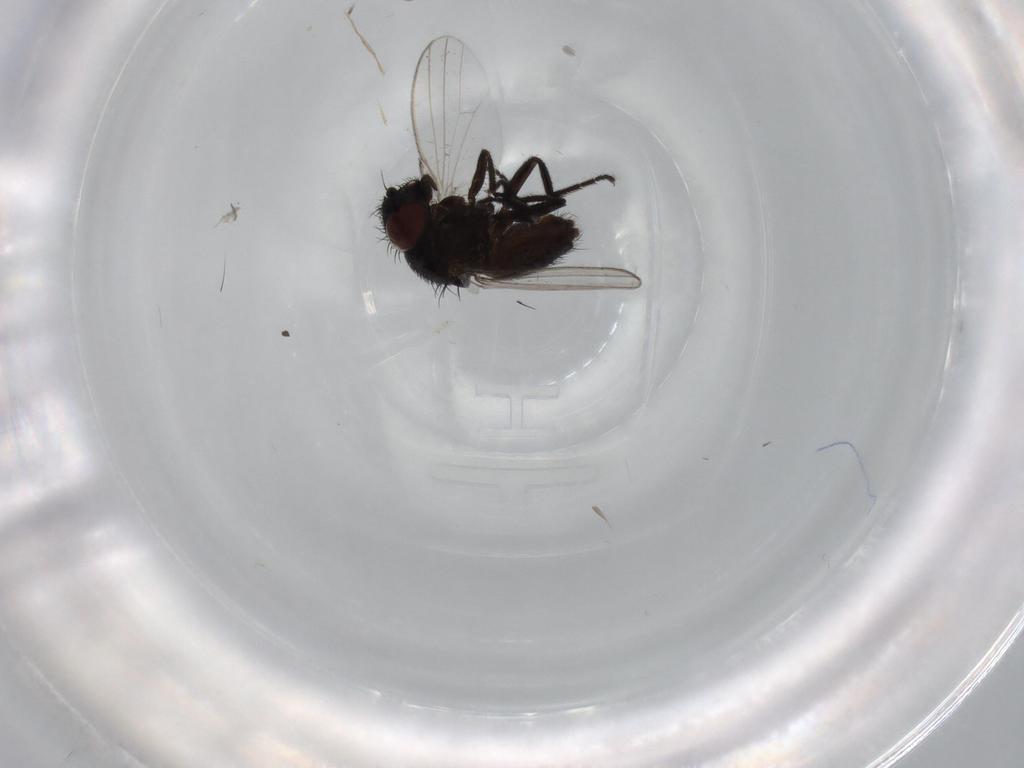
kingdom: Animalia
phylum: Arthropoda
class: Insecta
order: Diptera
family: Milichiidae
